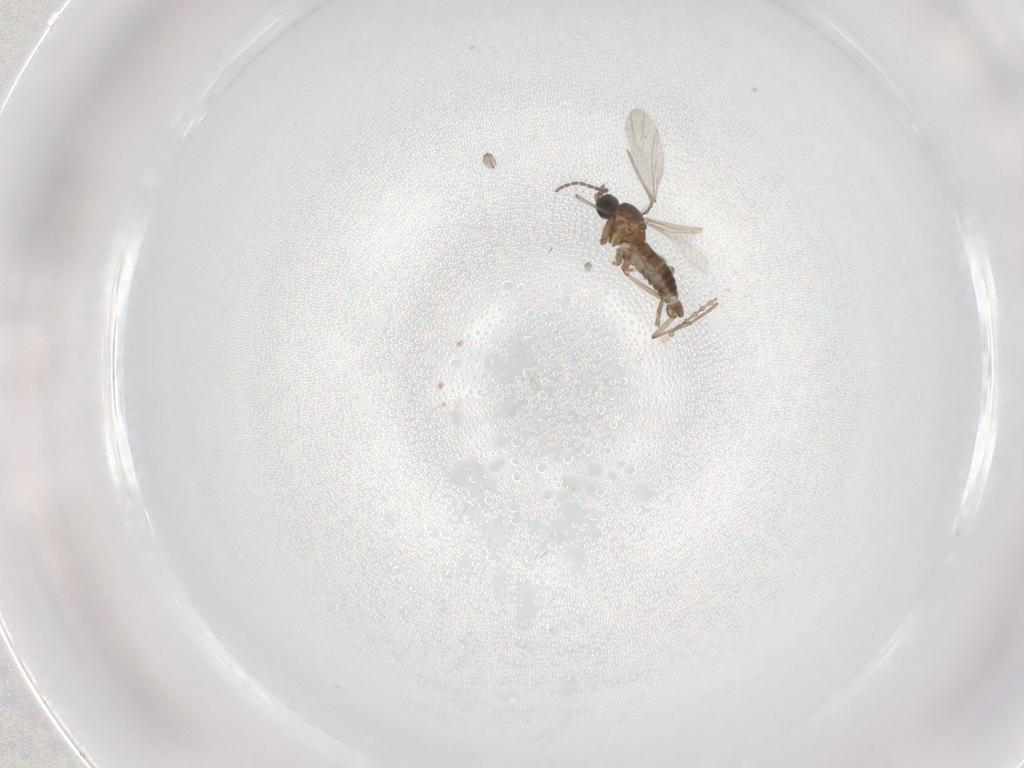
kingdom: Animalia
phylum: Arthropoda
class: Insecta
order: Diptera
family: Sciaridae
